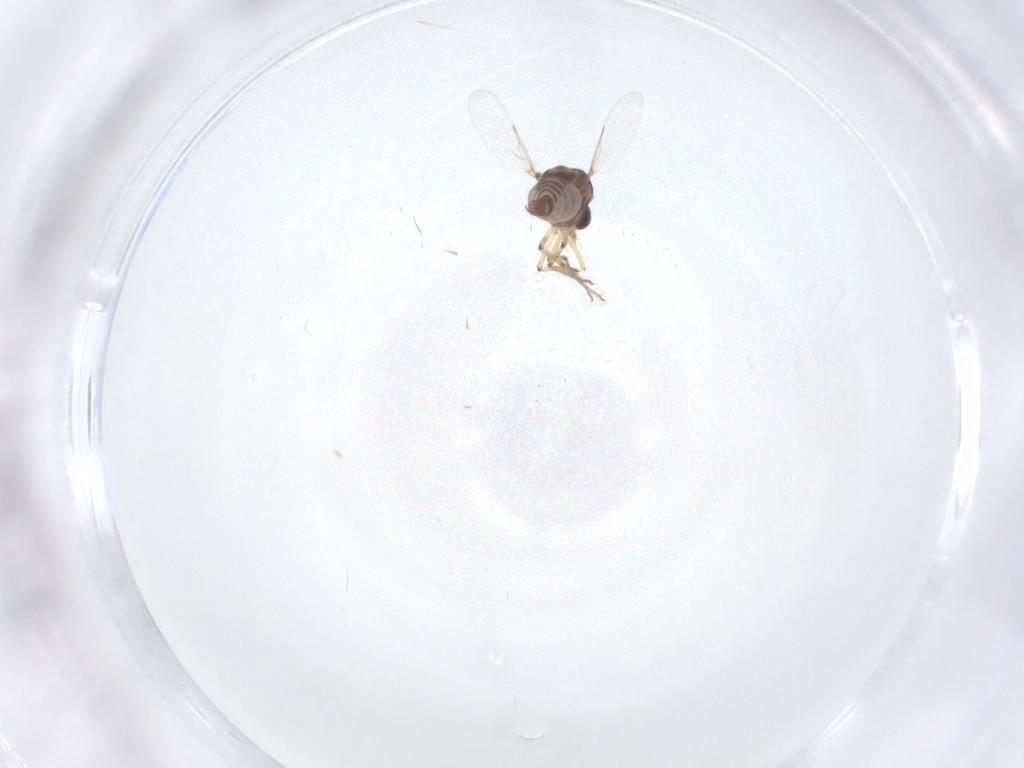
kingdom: Animalia
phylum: Arthropoda
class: Insecta
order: Diptera
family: Ceratopogonidae
